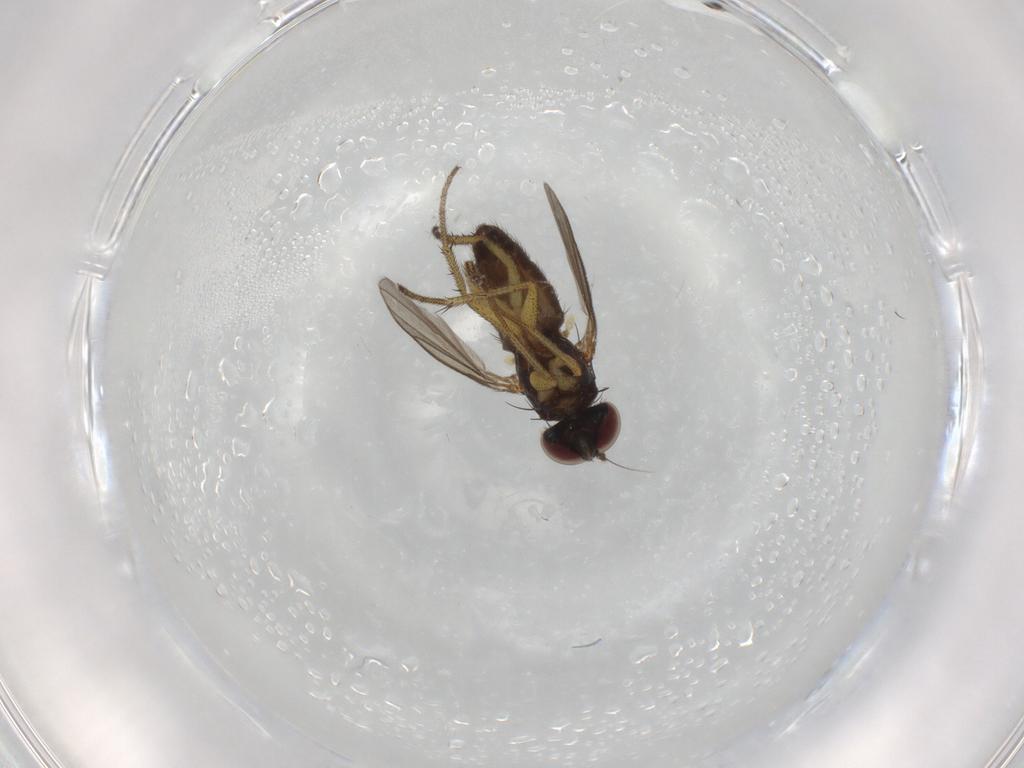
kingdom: Animalia
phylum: Arthropoda
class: Insecta
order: Diptera
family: Dolichopodidae
